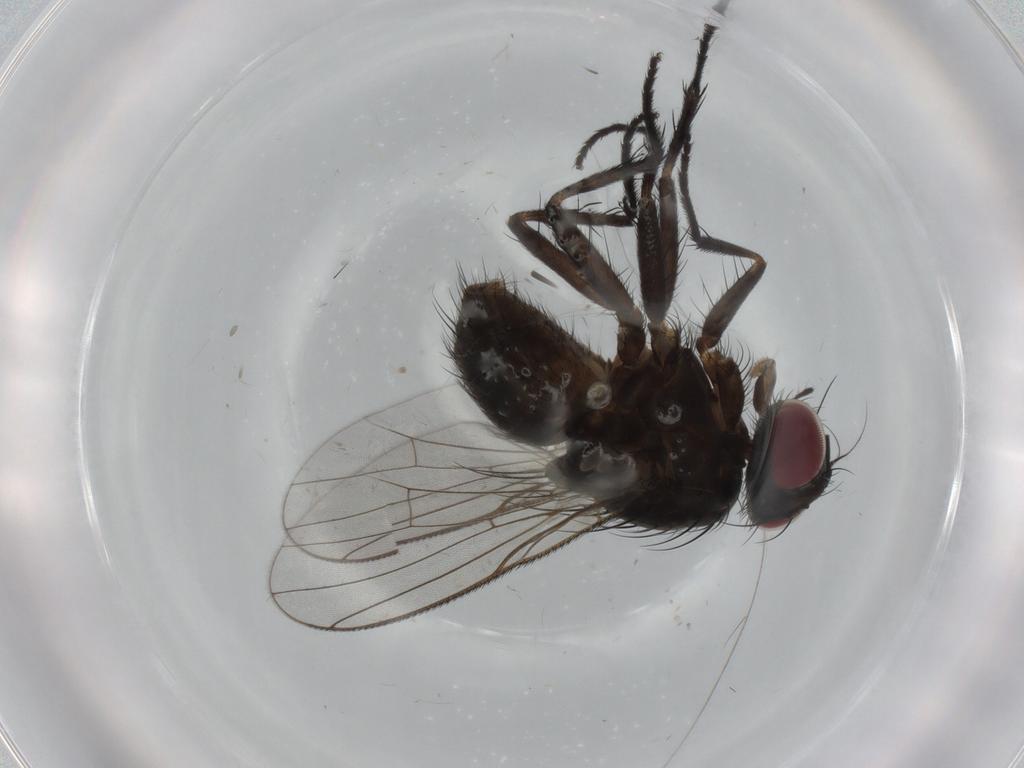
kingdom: Animalia
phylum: Arthropoda
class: Insecta
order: Diptera
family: Muscidae
